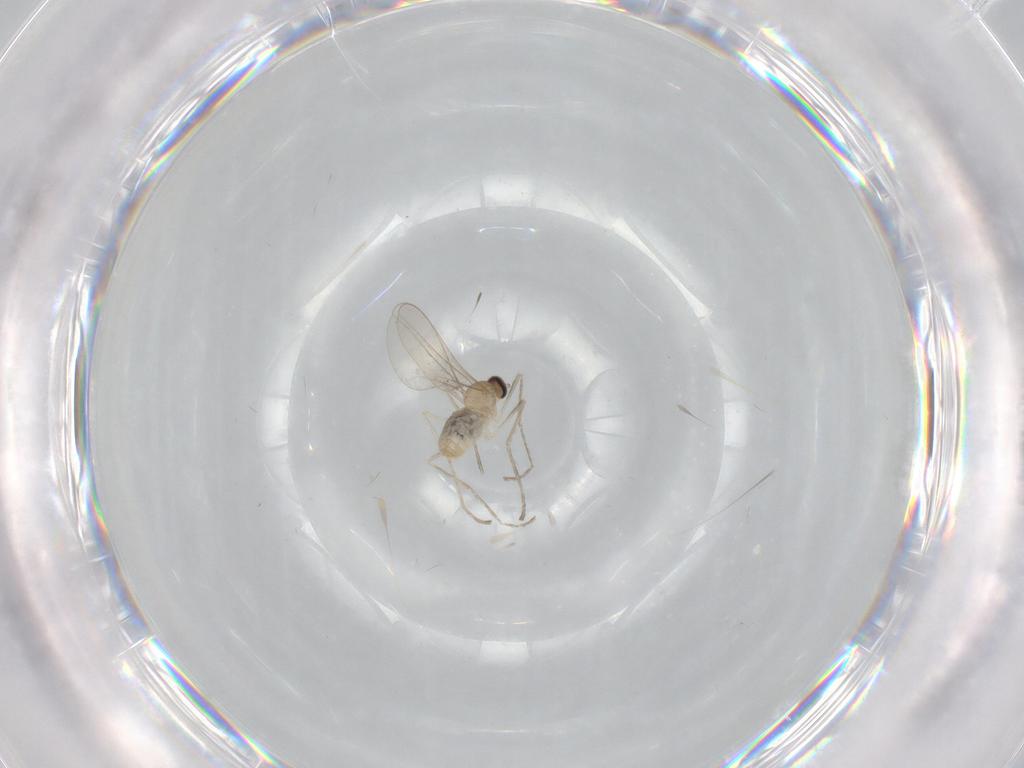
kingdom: Animalia
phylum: Arthropoda
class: Insecta
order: Diptera
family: Cecidomyiidae
